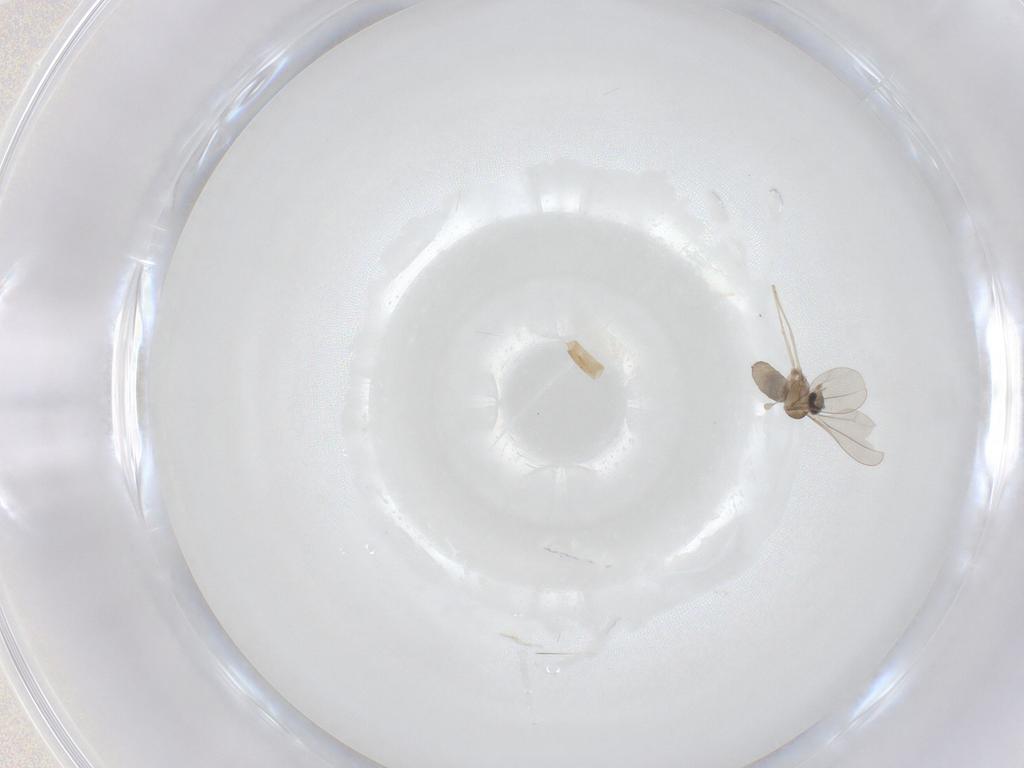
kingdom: Animalia
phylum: Arthropoda
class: Insecta
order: Diptera
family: Cecidomyiidae
